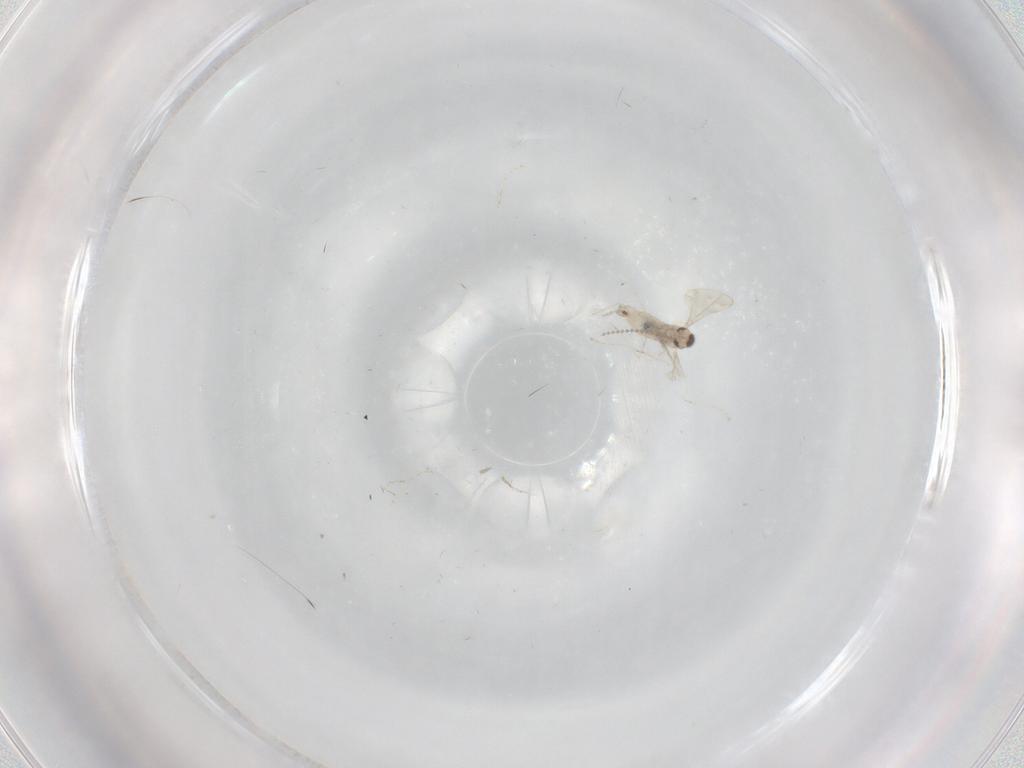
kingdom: Animalia
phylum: Arthropoda
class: Insecta
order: Diptera
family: Cecidomyiidae
